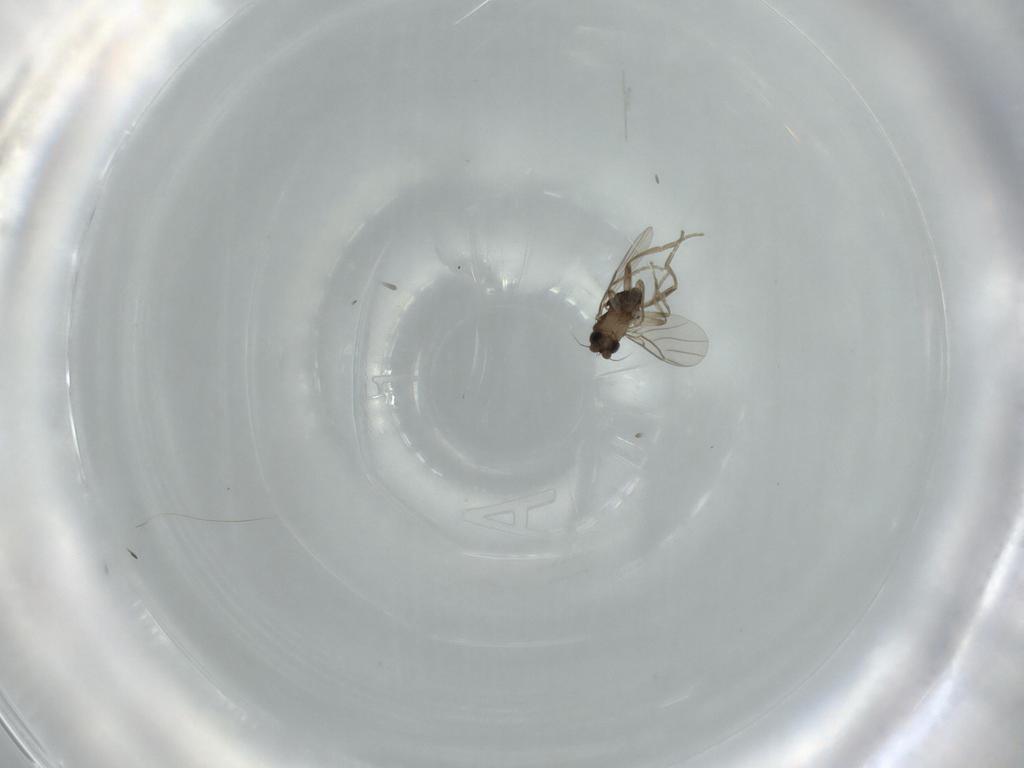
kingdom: Animalia
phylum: Arthropoda
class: Insecta
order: Diptera
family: Phoridae
